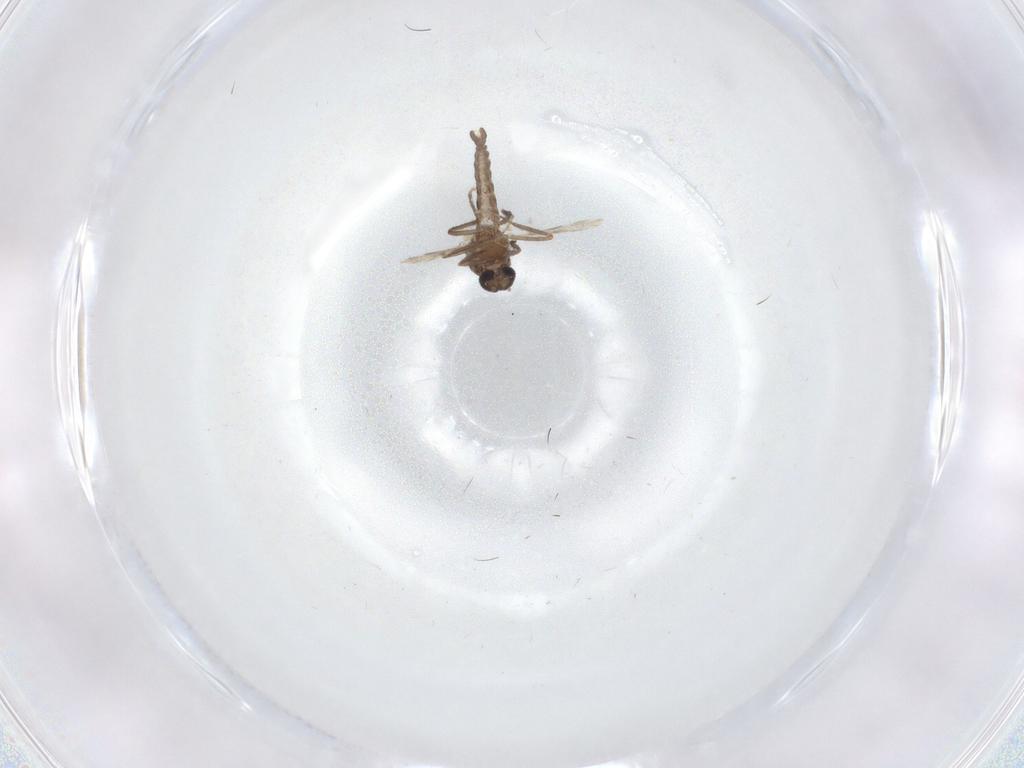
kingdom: Animalia
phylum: Arthropoda
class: Insecta
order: Diptera
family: Ceratopogonidae
